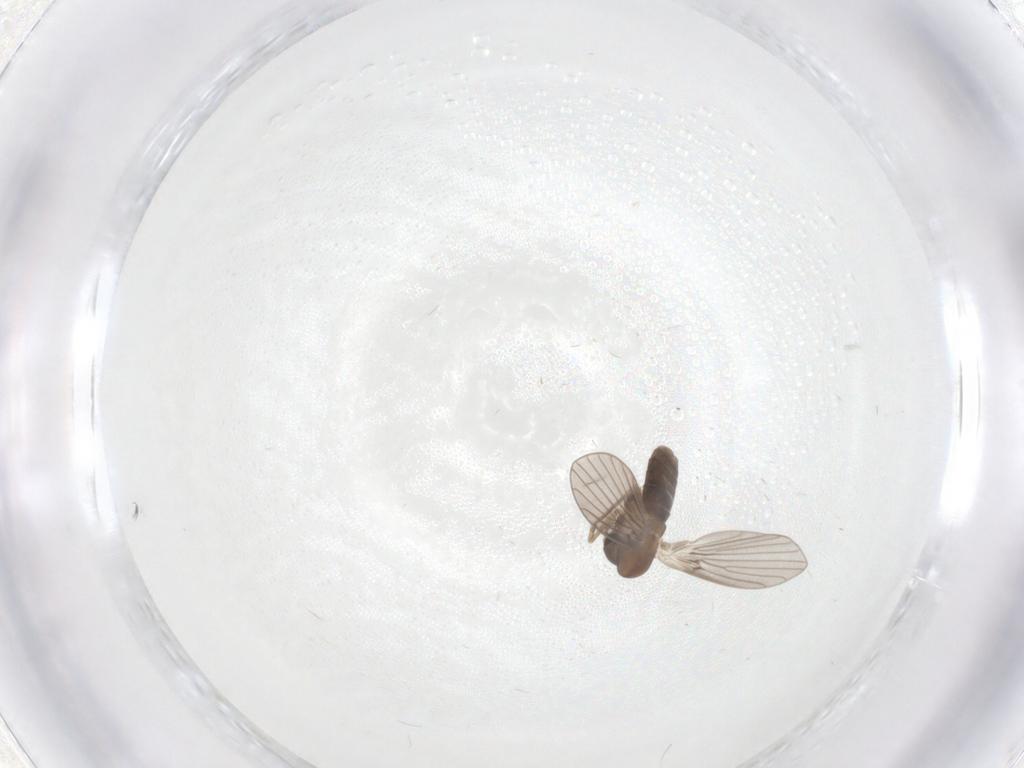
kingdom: Animalia
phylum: Arthropoda
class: Insecta
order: Diptera
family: Psychodidae
